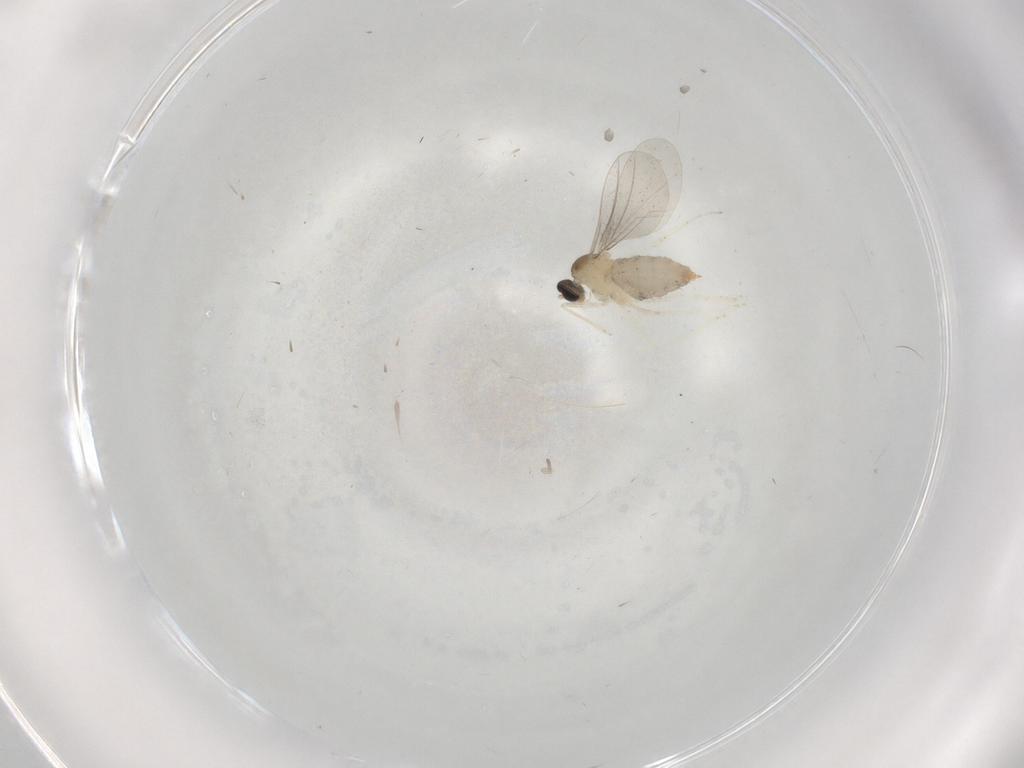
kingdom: Animalia
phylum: Arthropoda
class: Insecta
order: Diptera
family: Cecidomyiidae
